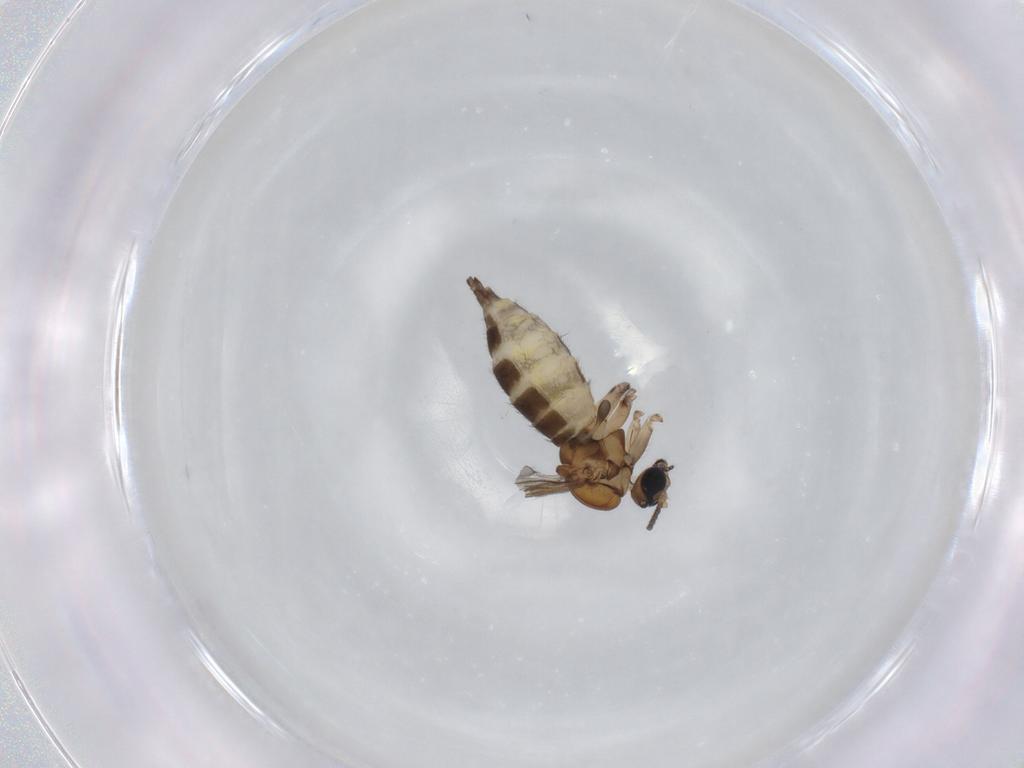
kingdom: Animalia
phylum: Arthropoda
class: Insecta
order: Diptera
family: Sciaridae
